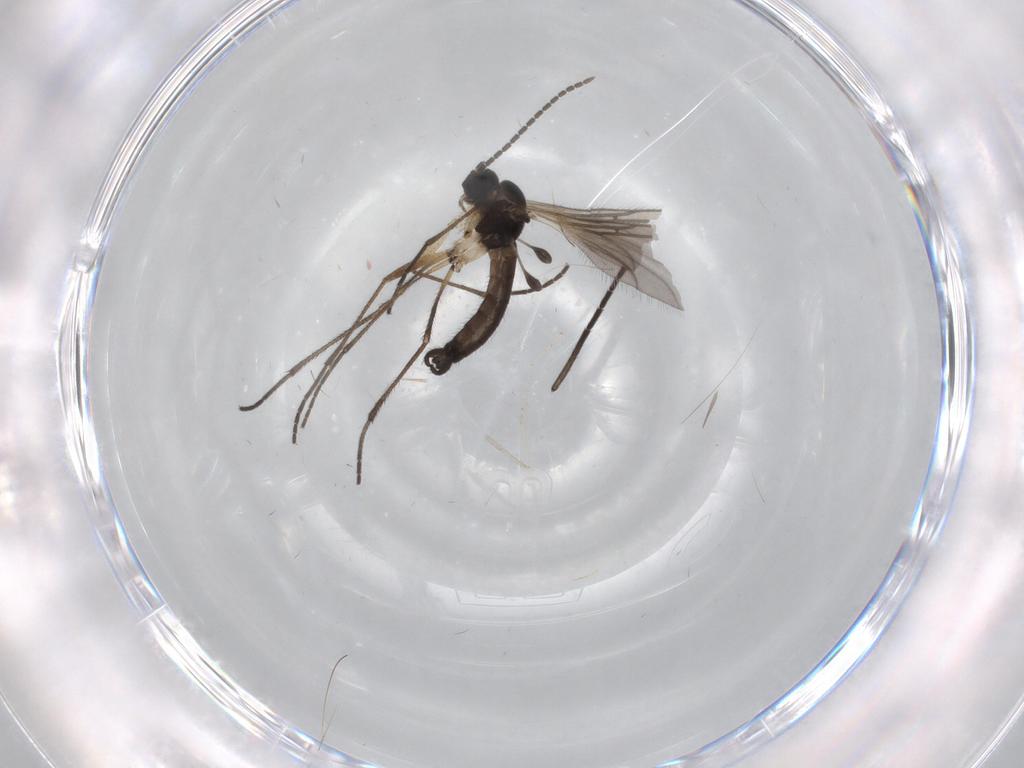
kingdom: Animalia
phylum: Arthropoda
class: Insecta
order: Diptera
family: Sciaridae
